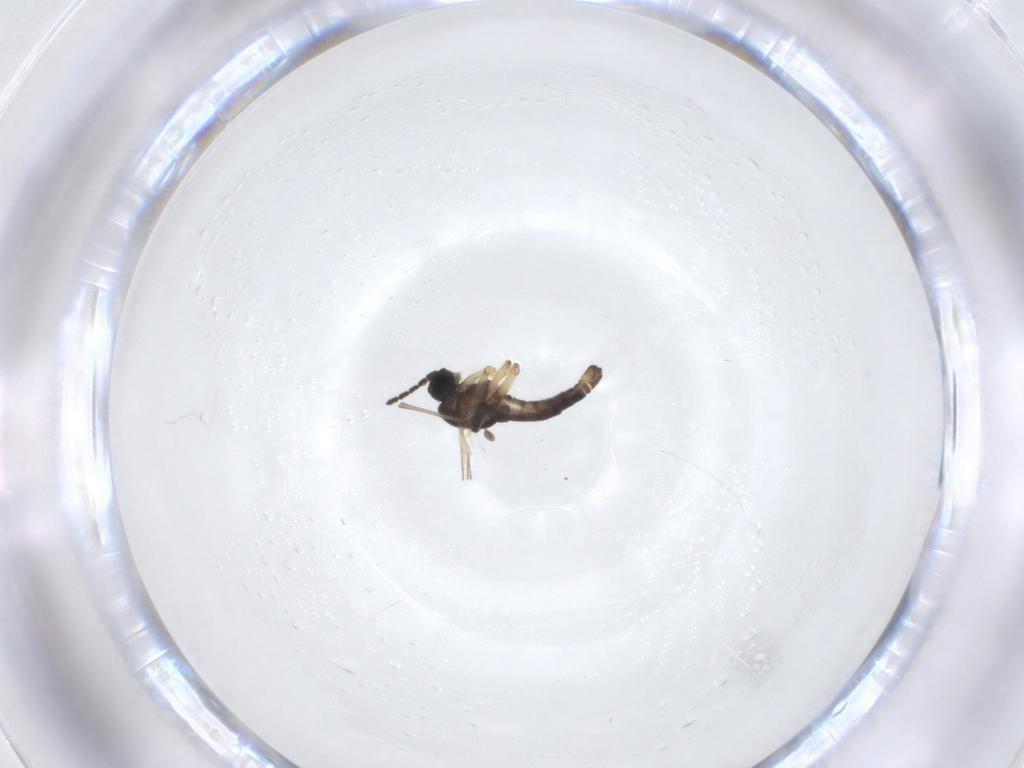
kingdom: Animalia
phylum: Arthropoda
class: Insecta
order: Diptera
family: Sciaridae
